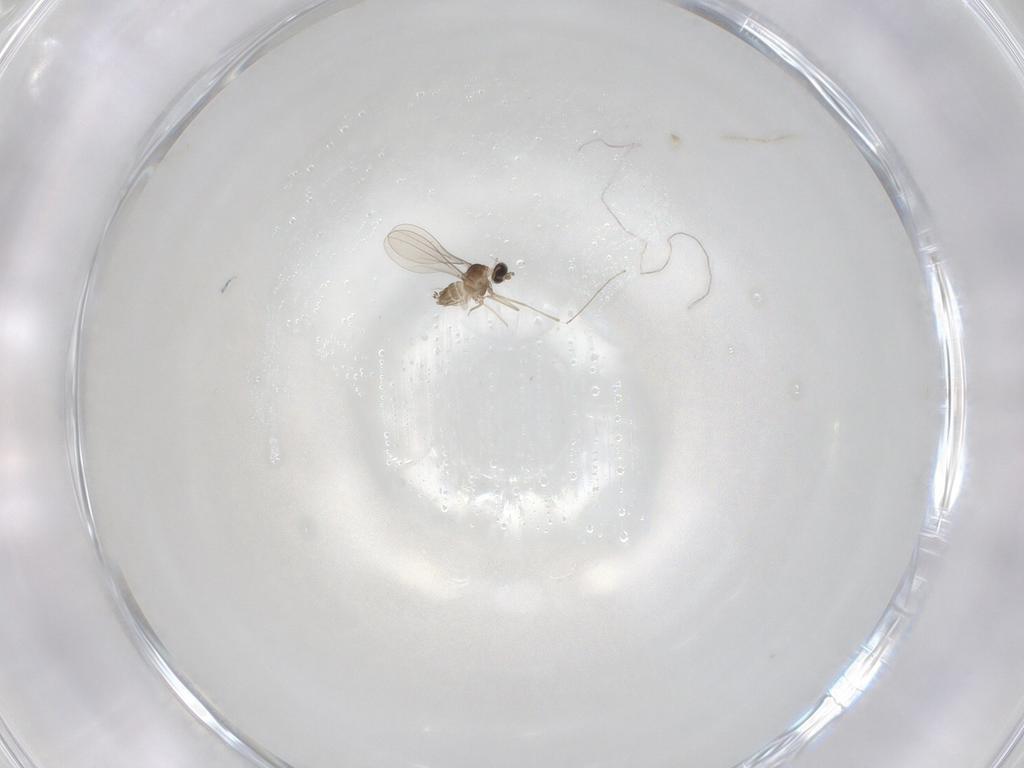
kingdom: Animalia
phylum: Arthropoda
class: Insecta
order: Diptera
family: Cecidomyiidae
